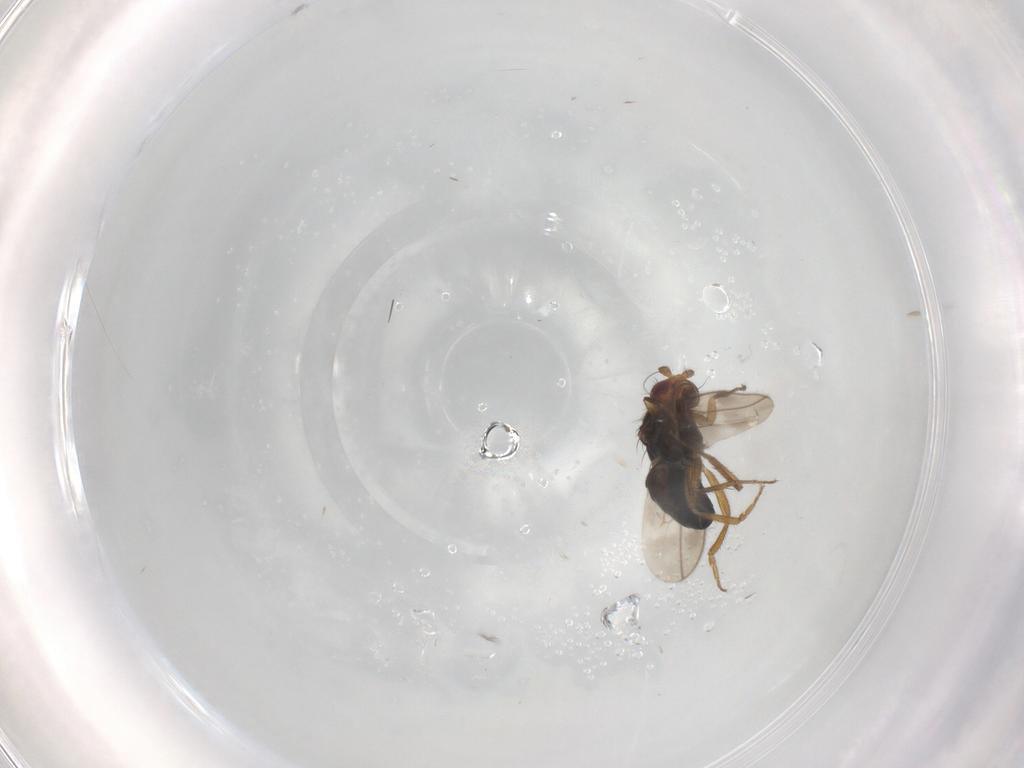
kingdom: Animalia
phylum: Arthropoda
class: Insecta
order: Diptera
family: Sphaeroceridae
